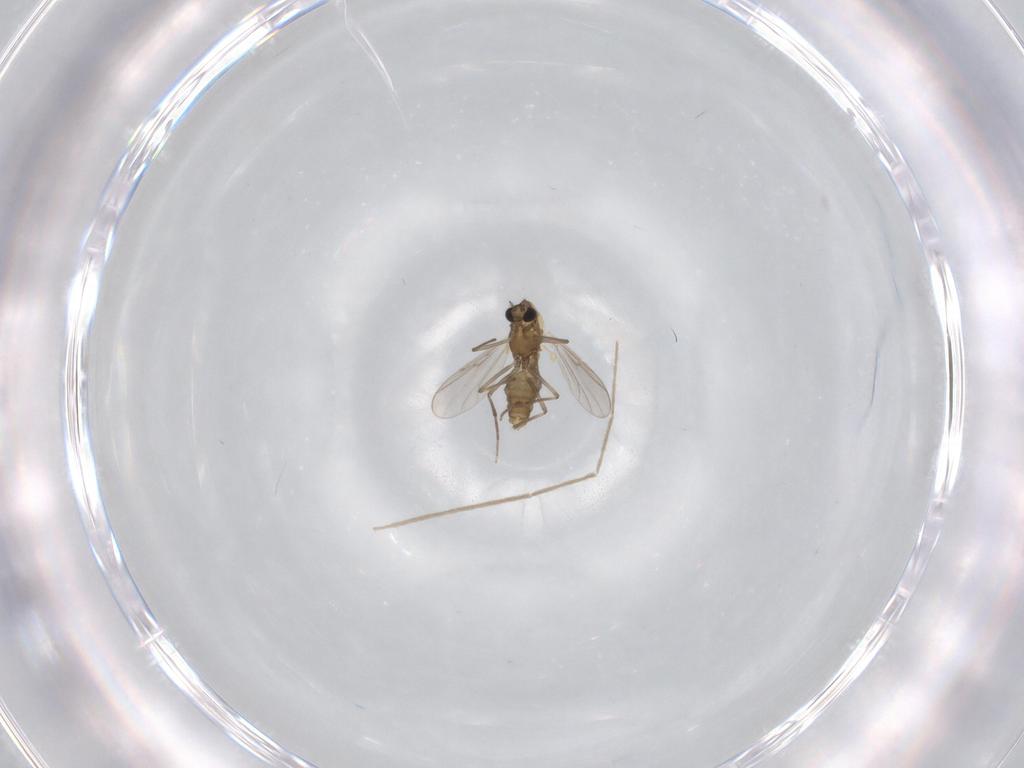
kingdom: Animalia
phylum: Arthropoda
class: Insecta
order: Diptera
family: Chironomidae
